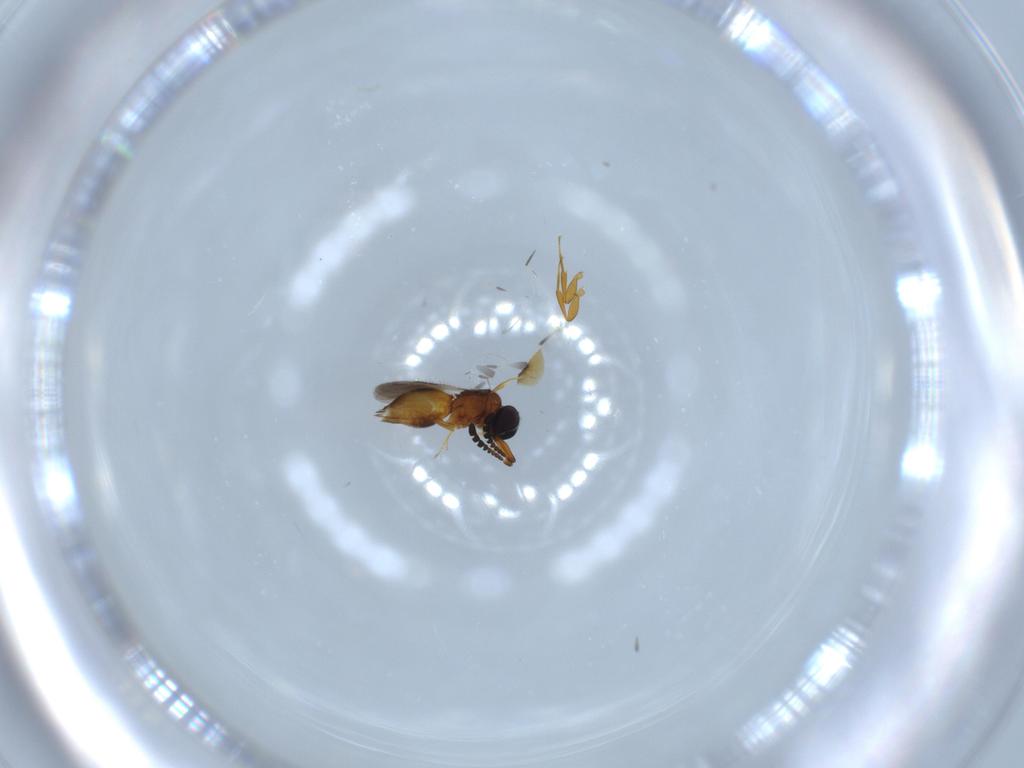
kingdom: Animalia
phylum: Arthropoda
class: Insecta
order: Hymenoptera
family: Ceraphronidae
